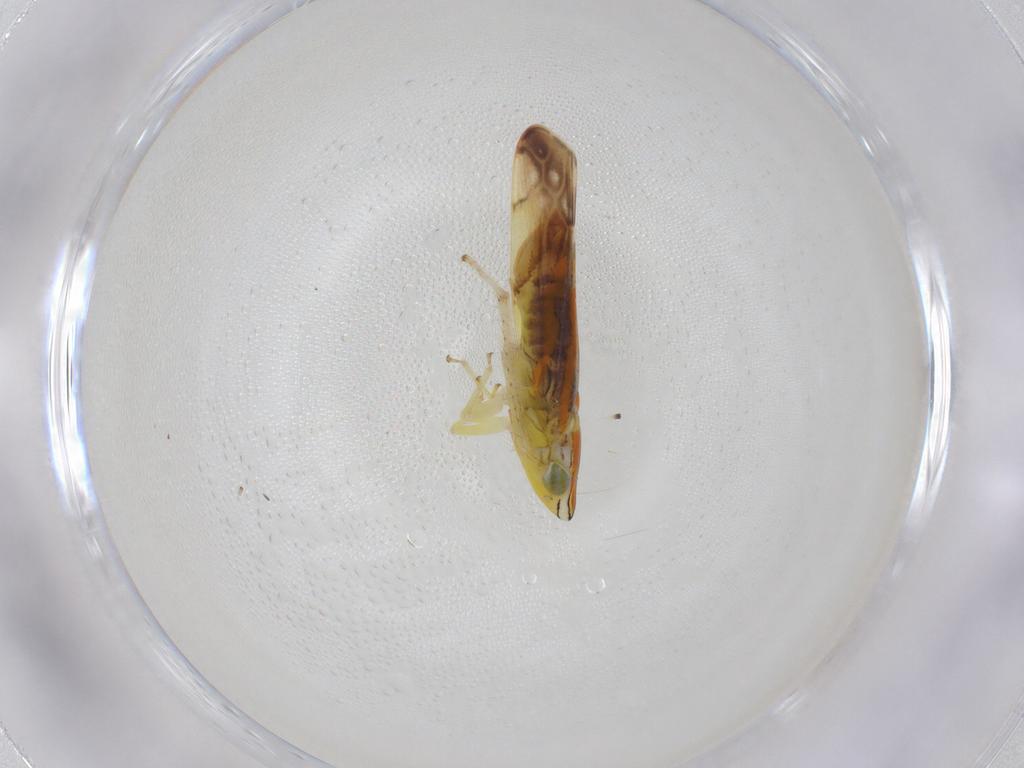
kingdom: Animalia
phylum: Arthropoda
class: Insecta
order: Hemiptera
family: Cicadellidae
